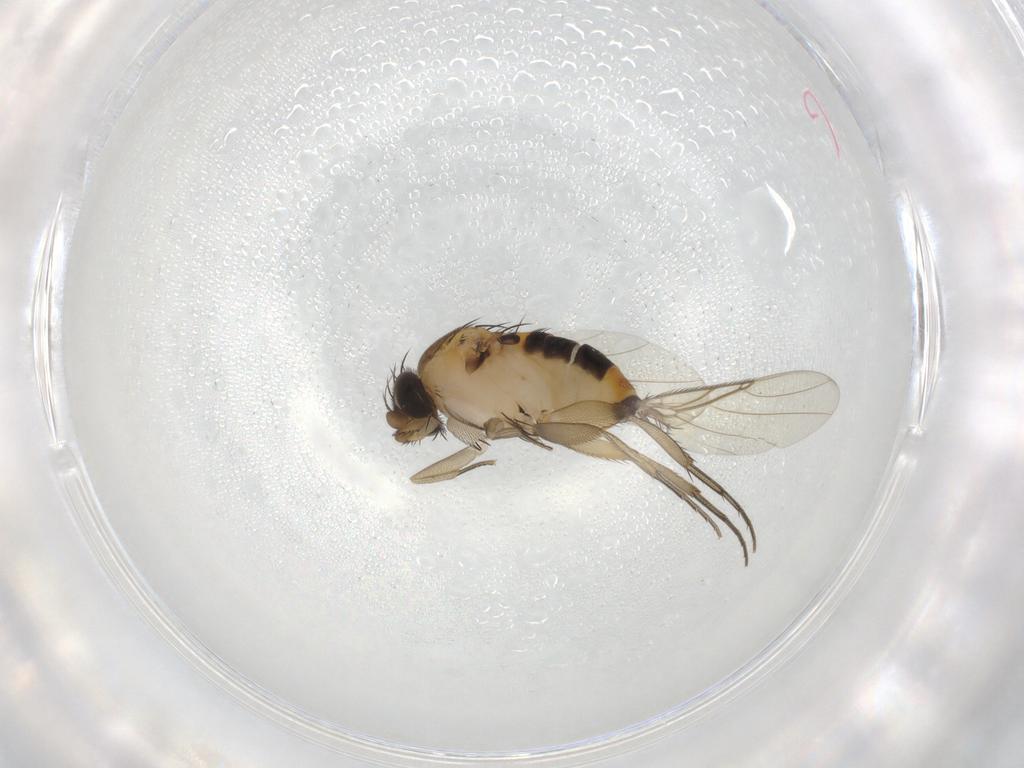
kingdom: Animalia
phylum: Arthropoda
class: Insecta
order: Diptera
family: Phoridae
